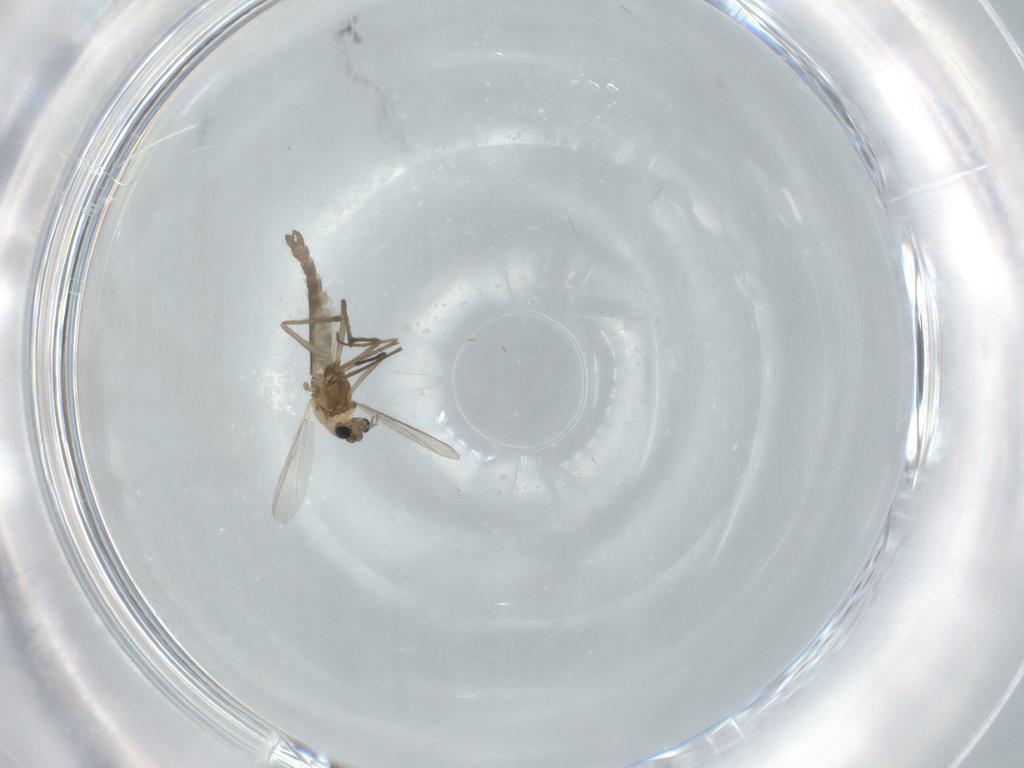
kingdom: Animalia
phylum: Arthropoda
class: Insecta
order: Diptera
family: Chironomidae
